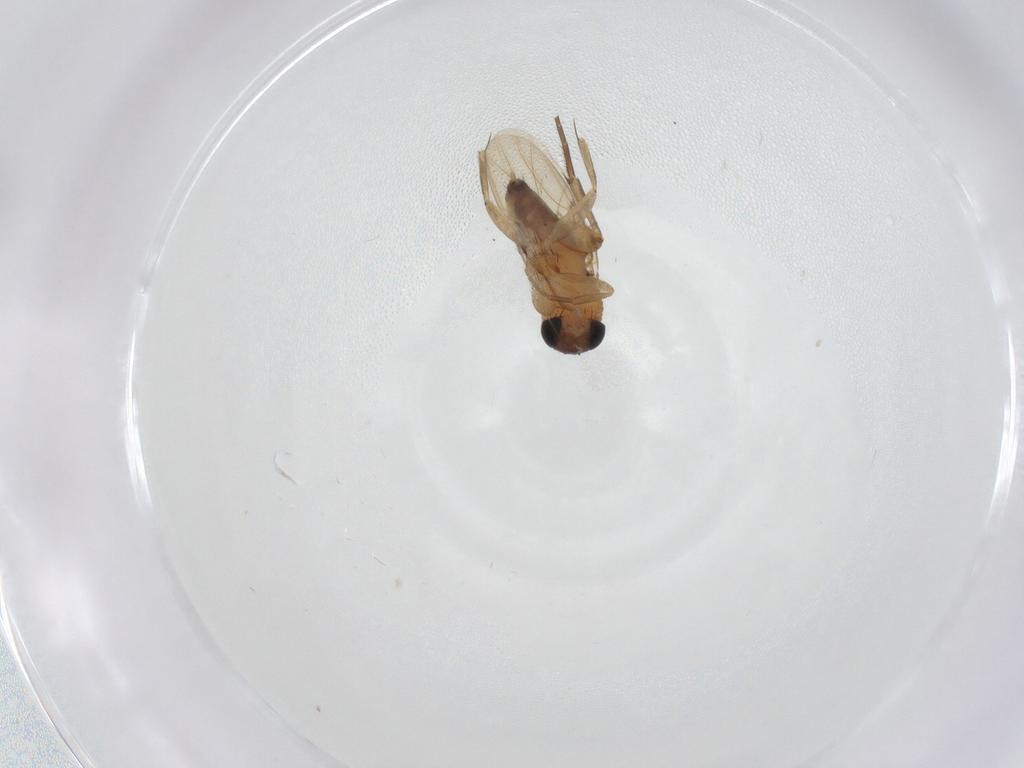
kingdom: Animalia
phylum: Arthropoda
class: Insecta
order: Diptera
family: Phoridae
